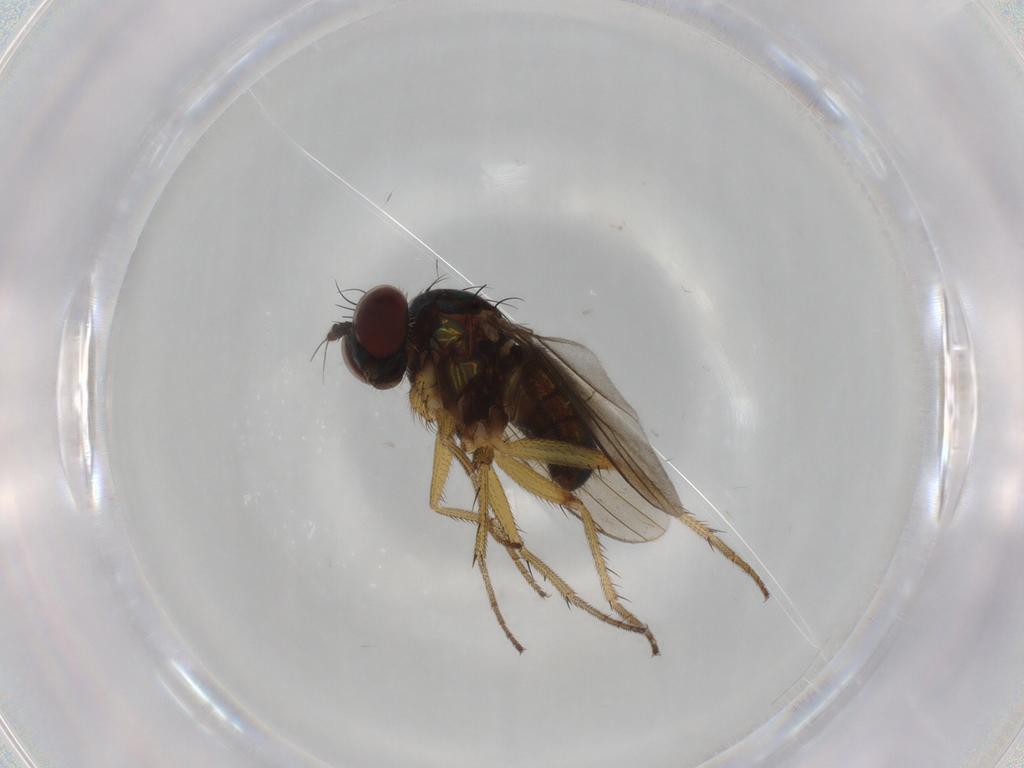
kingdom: Animalia
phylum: Arthropoda
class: Insecta
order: Diptera
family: Dolichopodidae
